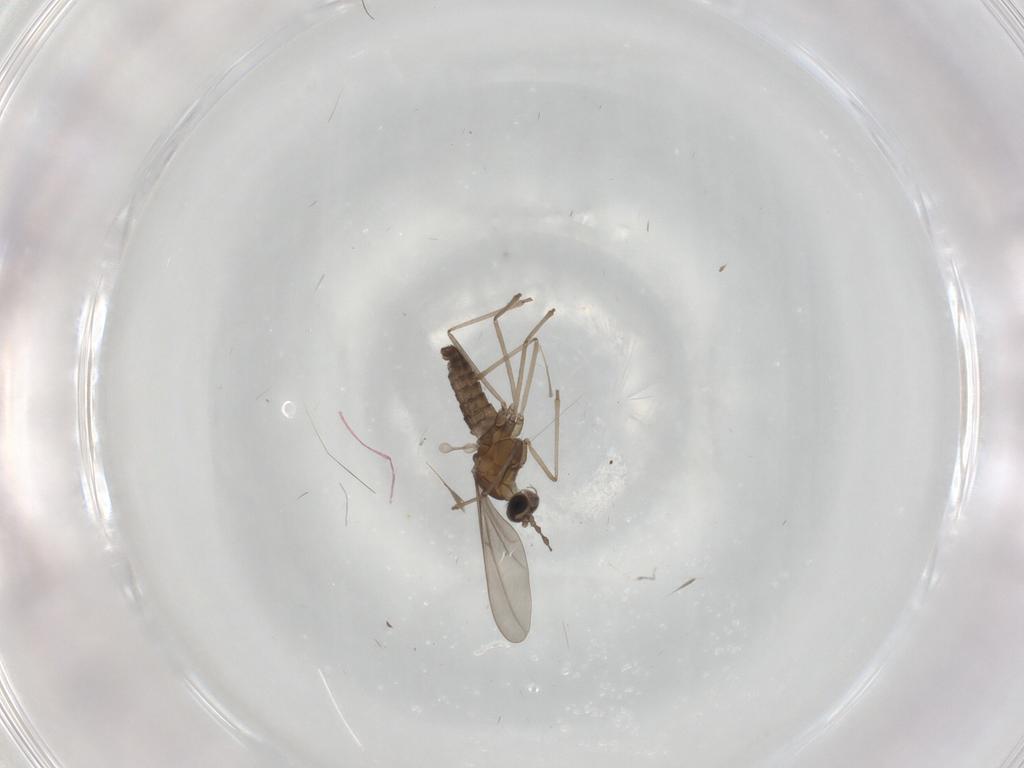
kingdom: Animalia
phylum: Arthropoda
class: Insecta
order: Diptera
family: Cecidomyiidae
